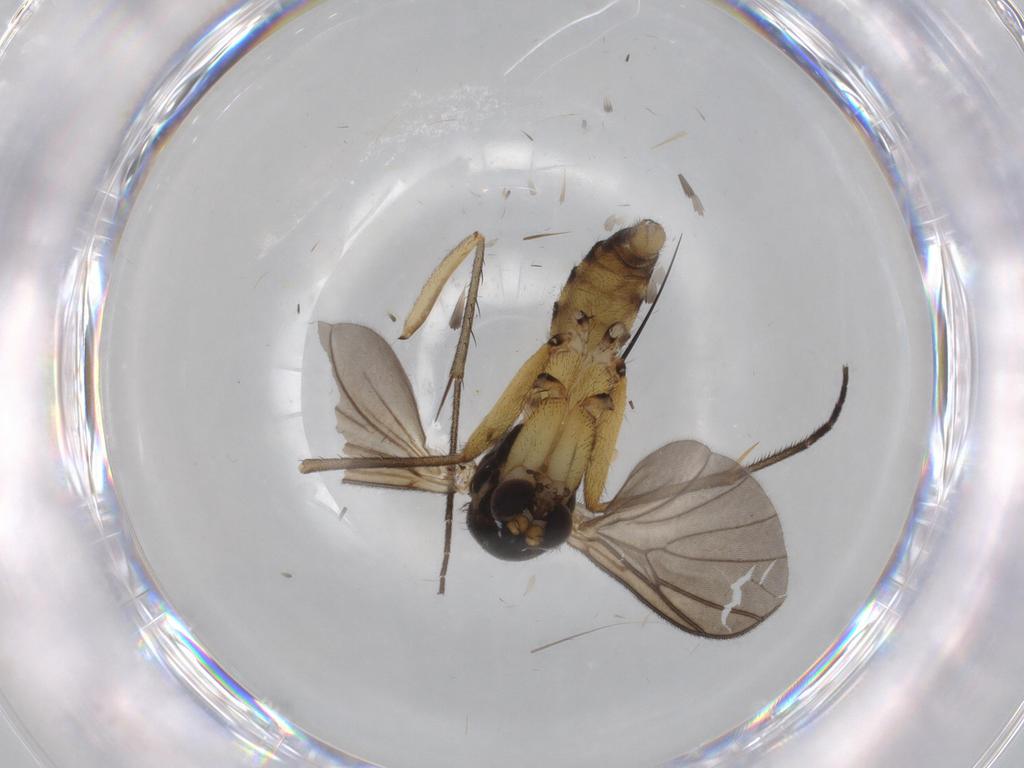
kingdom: Animalia
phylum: Arthropoda
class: Insecta
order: Diptera
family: Chironomidae
